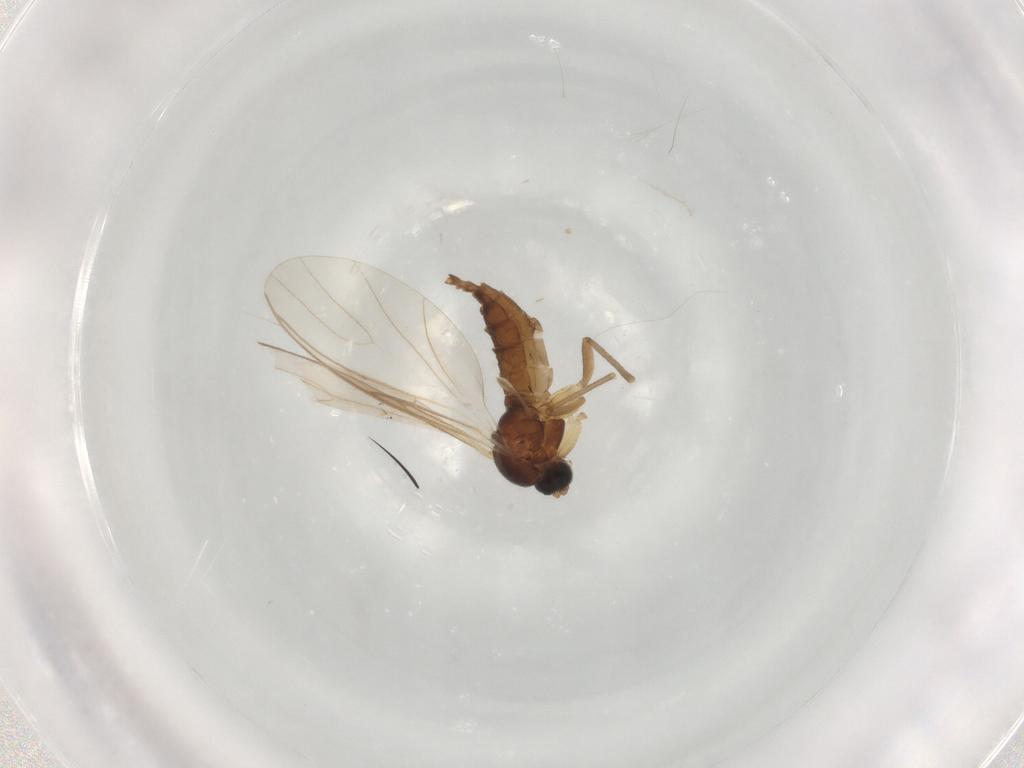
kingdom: Animalia
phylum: Arthropoda
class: Insecta
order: Diptera
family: Sciaridae
